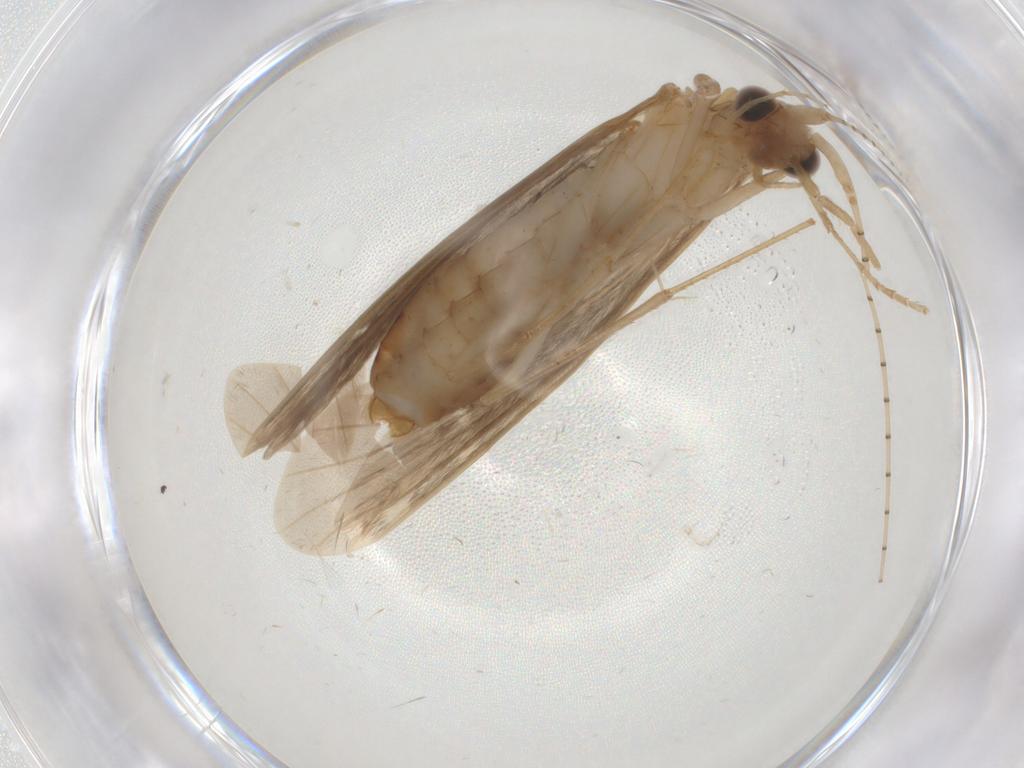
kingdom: Animalia
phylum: Arthropoda
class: Insecta
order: Trichoptera
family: Leptoceridae
